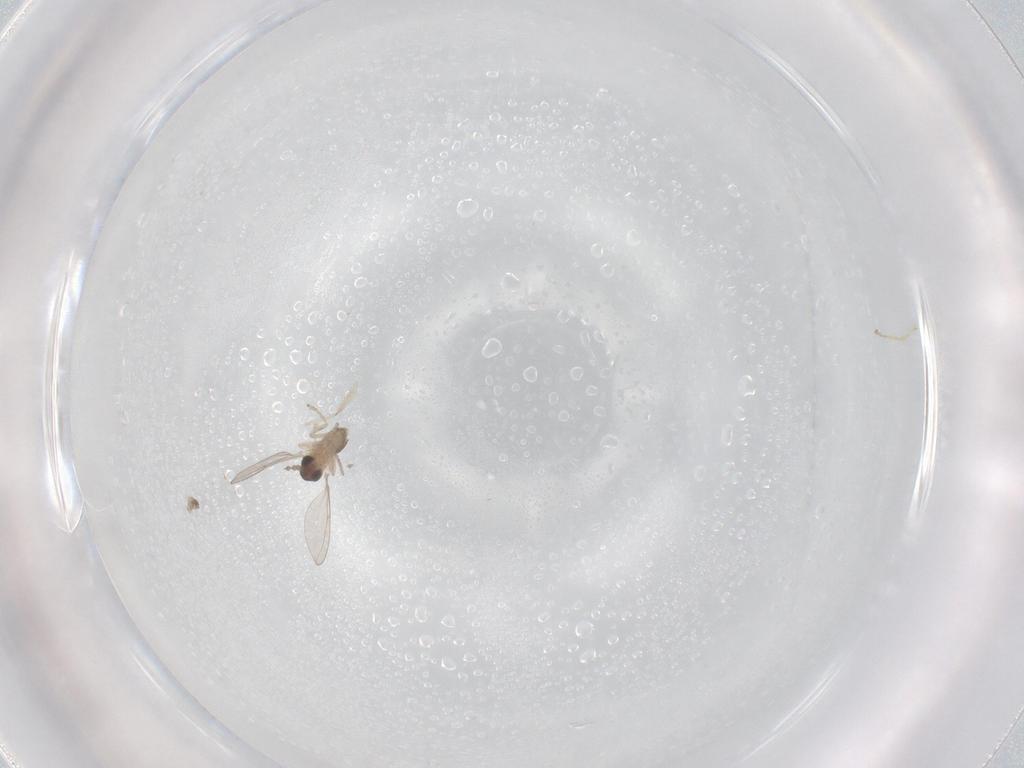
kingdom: Animalia
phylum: Arthropoda
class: Insecta
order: Diptera
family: Cecidomyiidae
